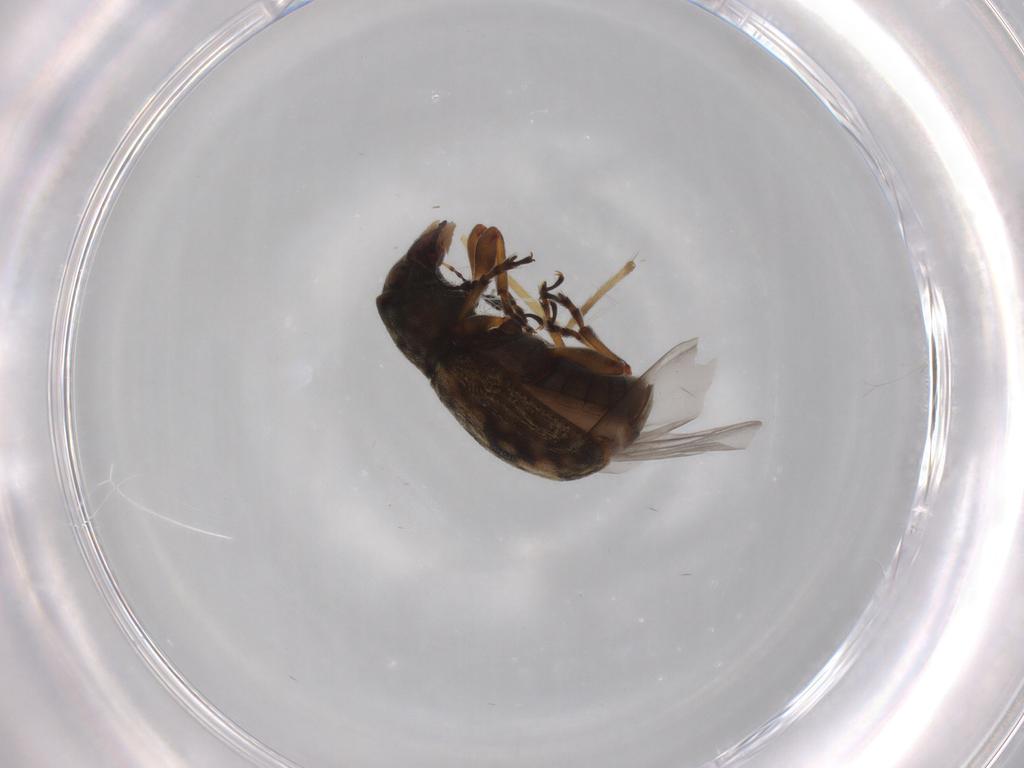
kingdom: Animalia
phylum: Arthropoda
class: Insecta
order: Coleoptera
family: Anthribidae
